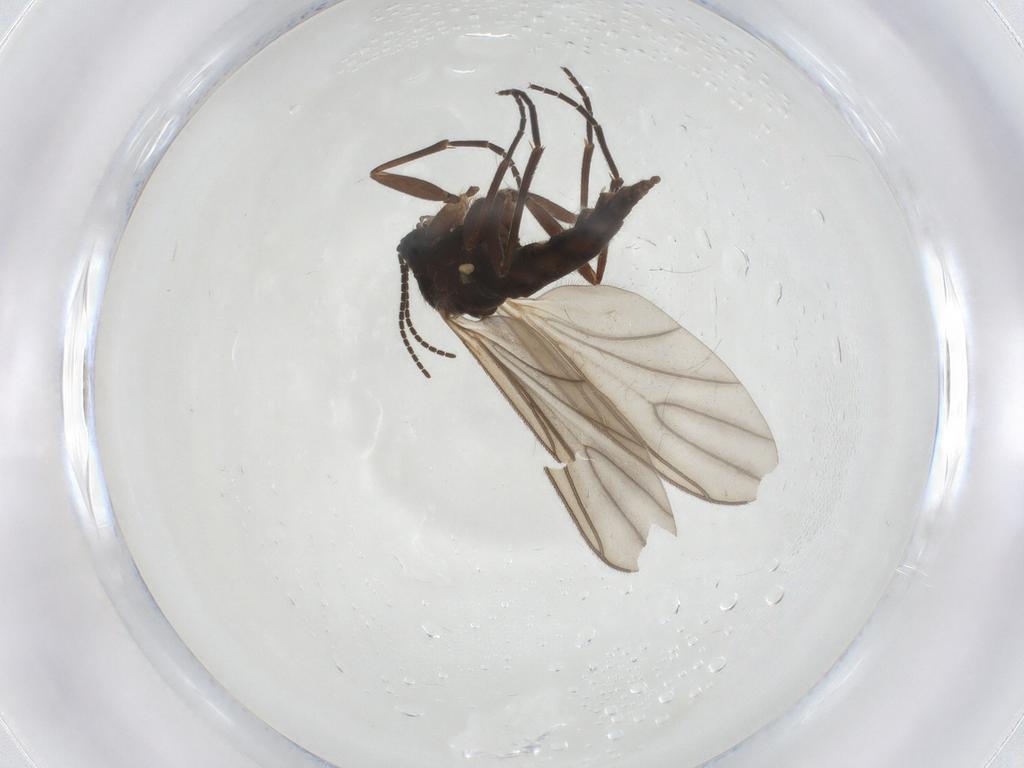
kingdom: Animalia
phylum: Arthropoda
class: Insecta
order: Diptera
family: Sciaridae
